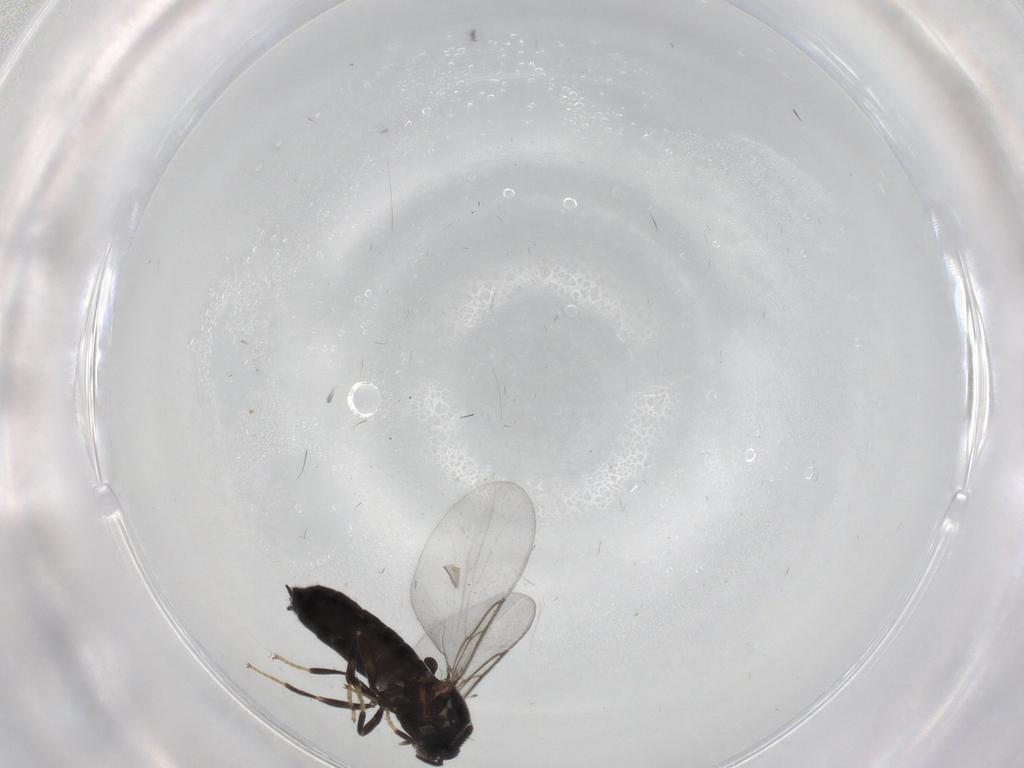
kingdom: Animalia
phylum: Arthropoda
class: Insecta
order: Diptera
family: Scatopsidae
